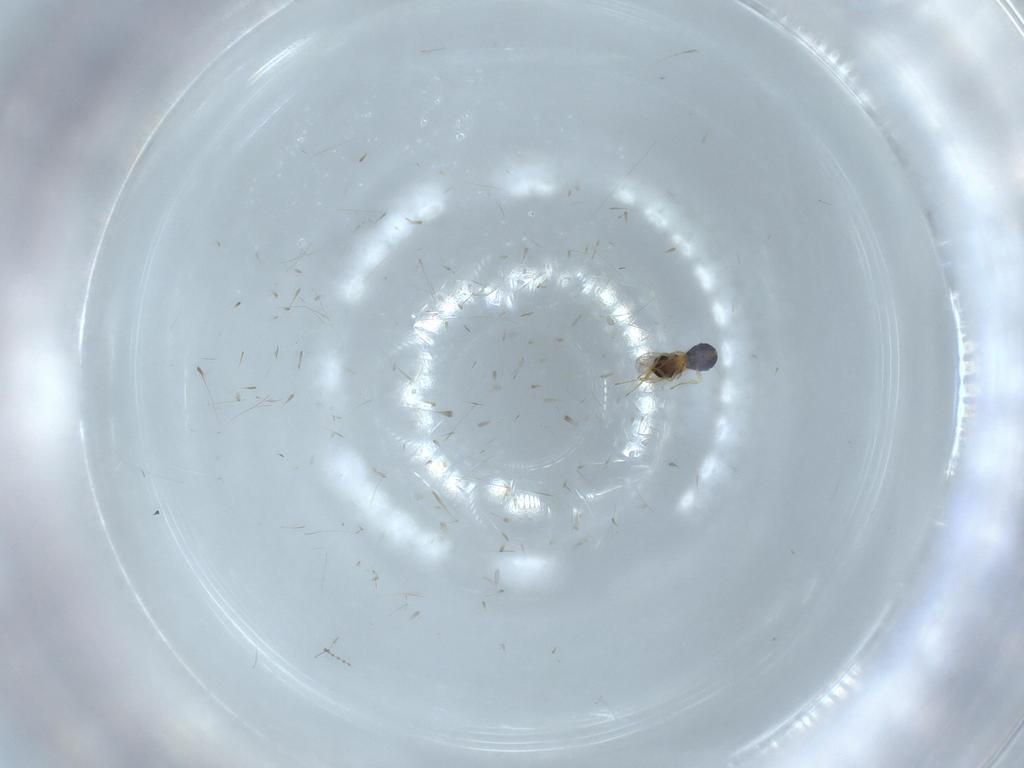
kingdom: Animalia
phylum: Arthropoda
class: Insecta
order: Hymenoptera
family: Scelionidae
